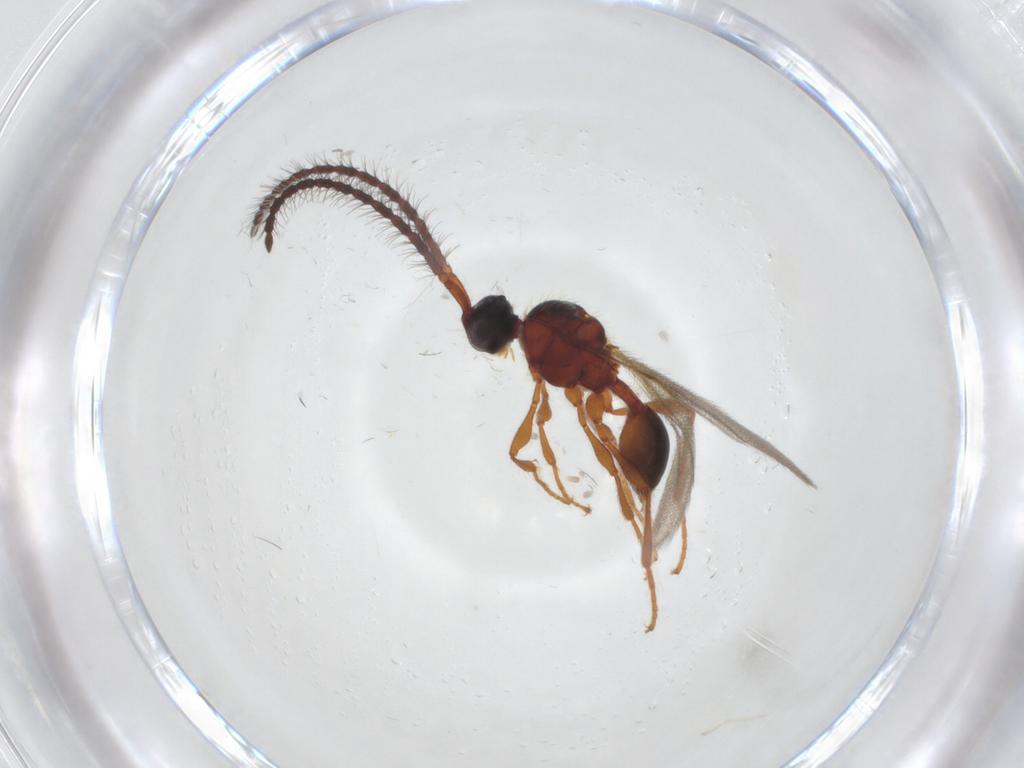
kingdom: Animalia
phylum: Arthropoda
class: Insecta
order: Hymenoptera
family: Diapriidae
